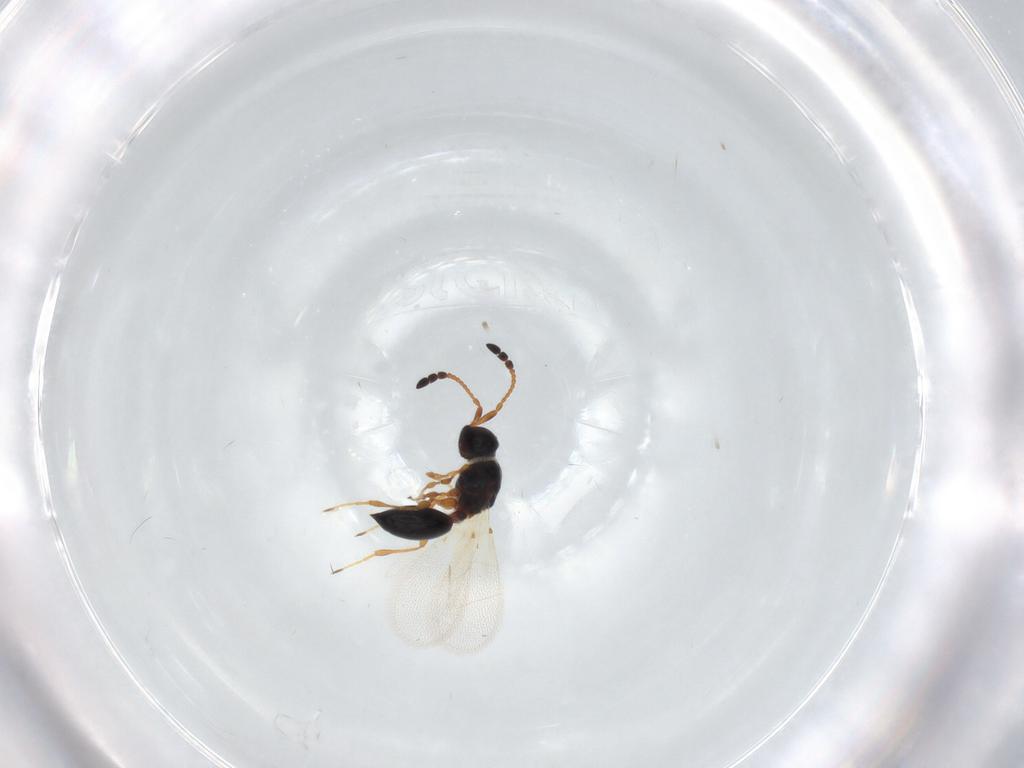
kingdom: Animalia
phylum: Arthropoda
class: Insecta
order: Hymenoptera
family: Diapriidae
